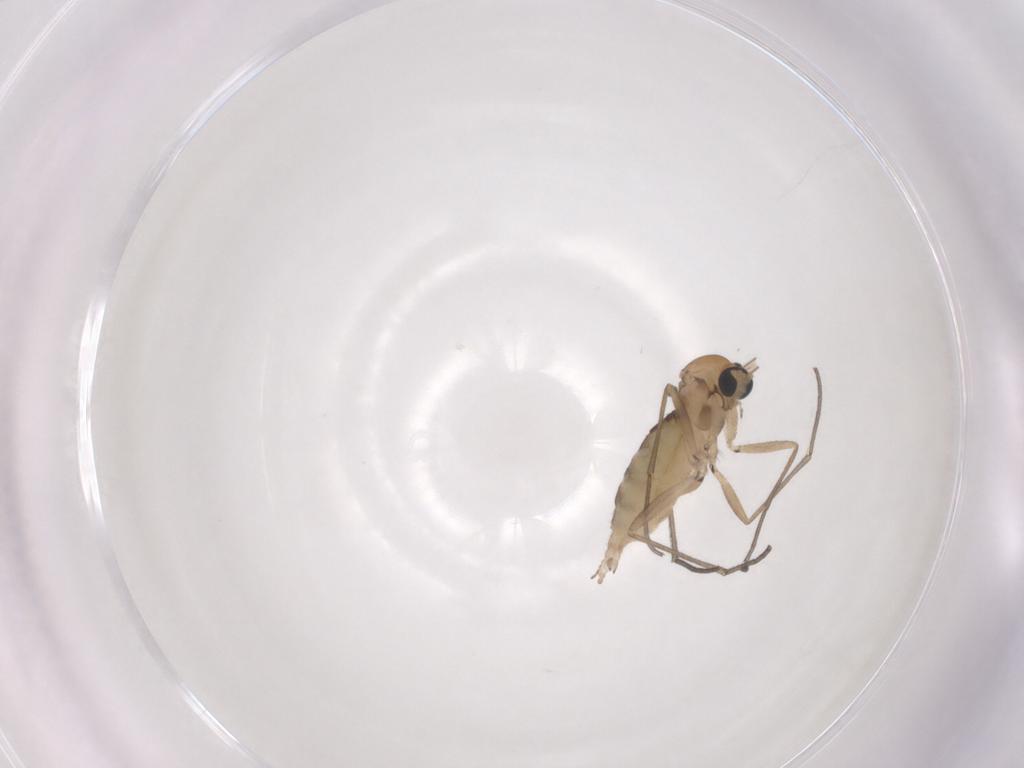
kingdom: Animalia
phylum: Arthropoda
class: Insecta
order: Diptera
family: Sciaridae
